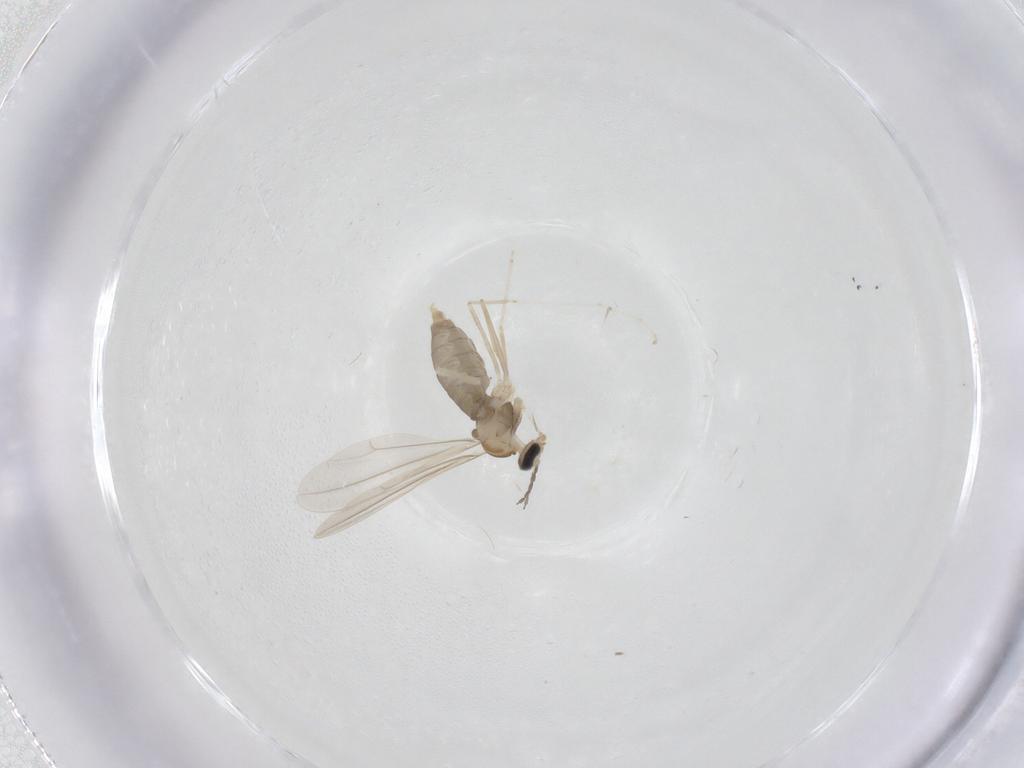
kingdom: Animalia
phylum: Arthropoda
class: Insecta
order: Diptera
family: Cecidomyiidae
